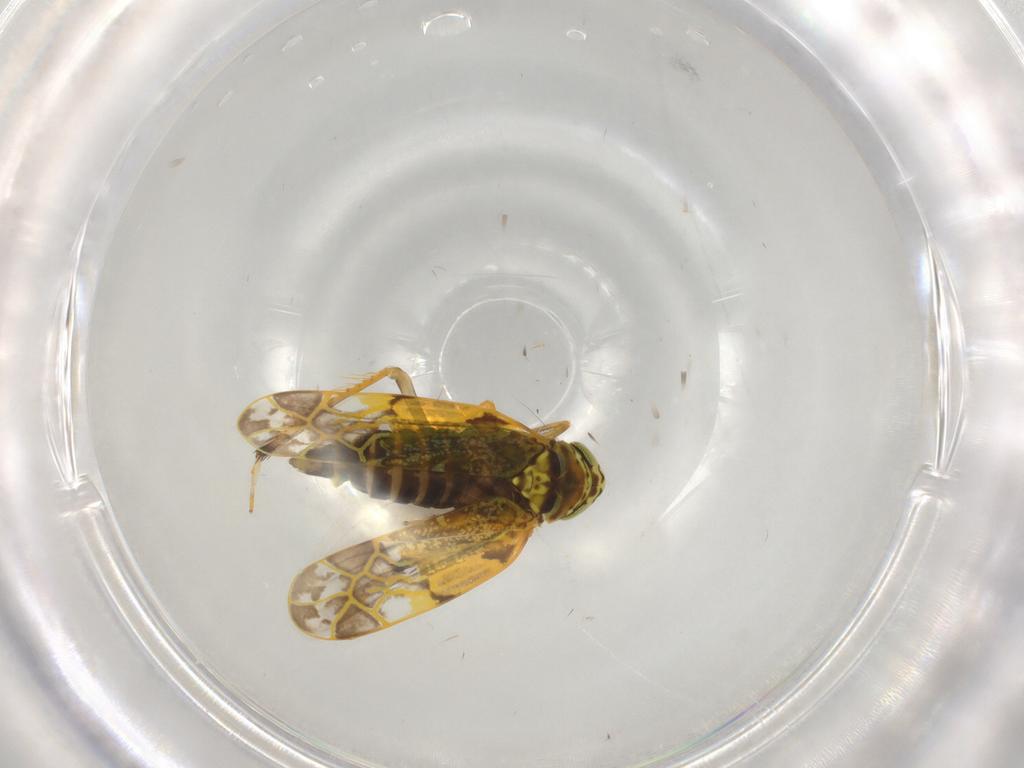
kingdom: Animalia
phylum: Arthropoda
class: Insecta
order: Hemiptera
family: Cicadellidae
